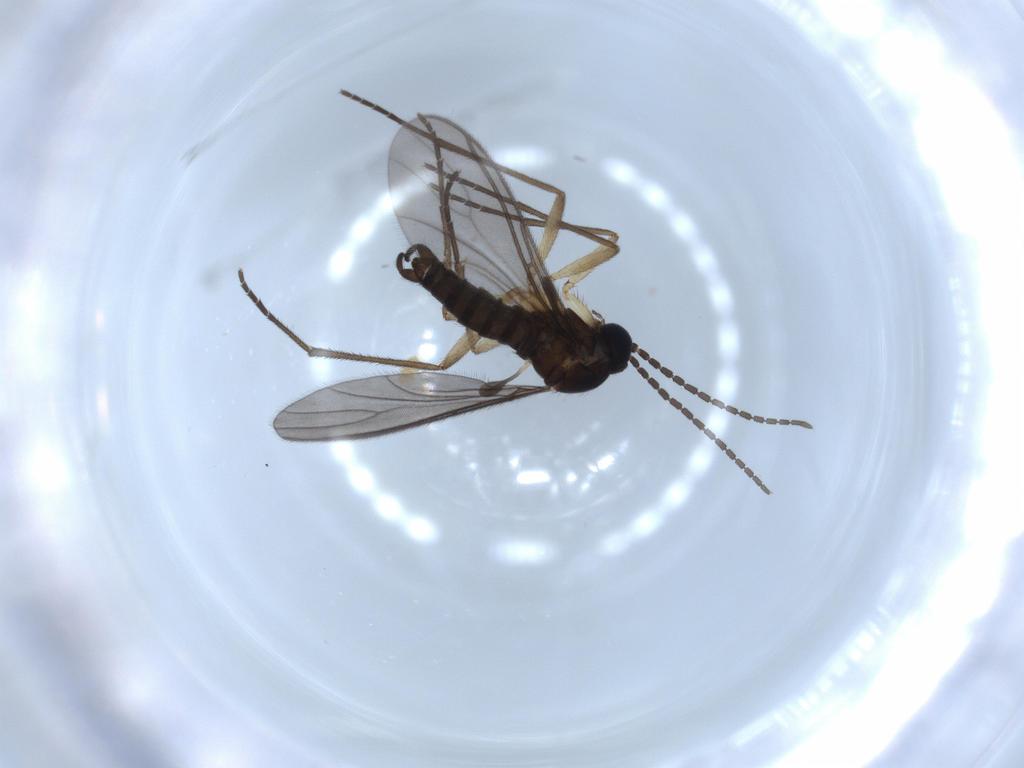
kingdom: Animalia
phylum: Arthropoda
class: Insecta
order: Diptera
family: Sciaridae
